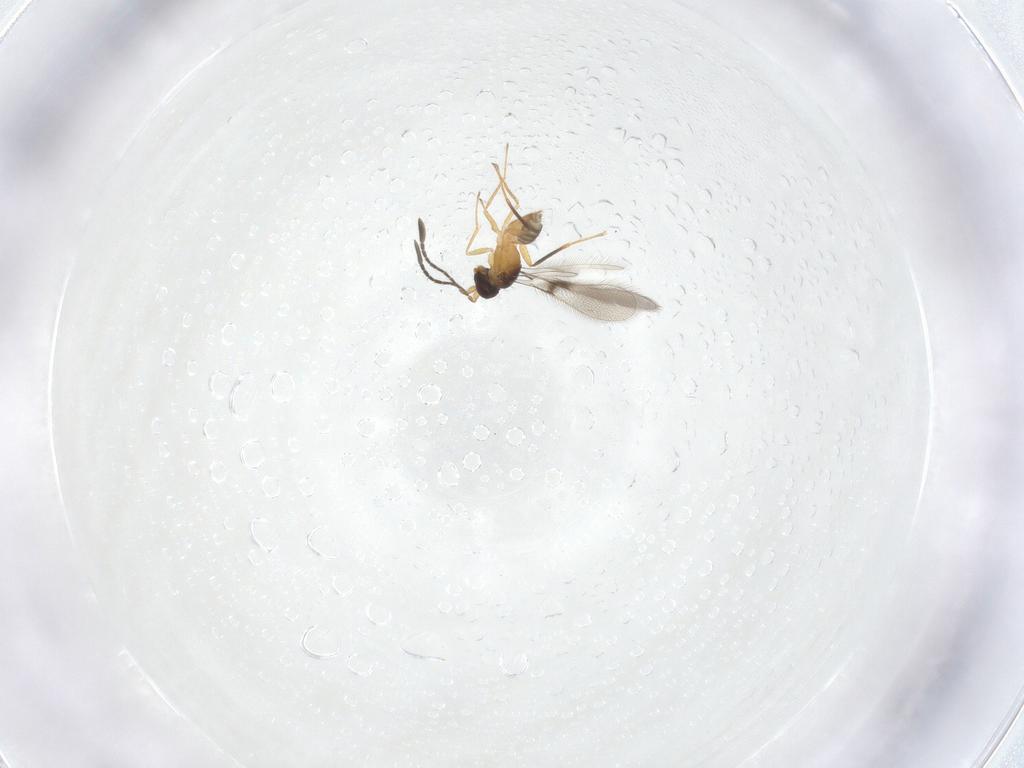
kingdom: Animalia
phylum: Arthropoda
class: Insecta
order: Hymenoptera
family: Mymaridae
